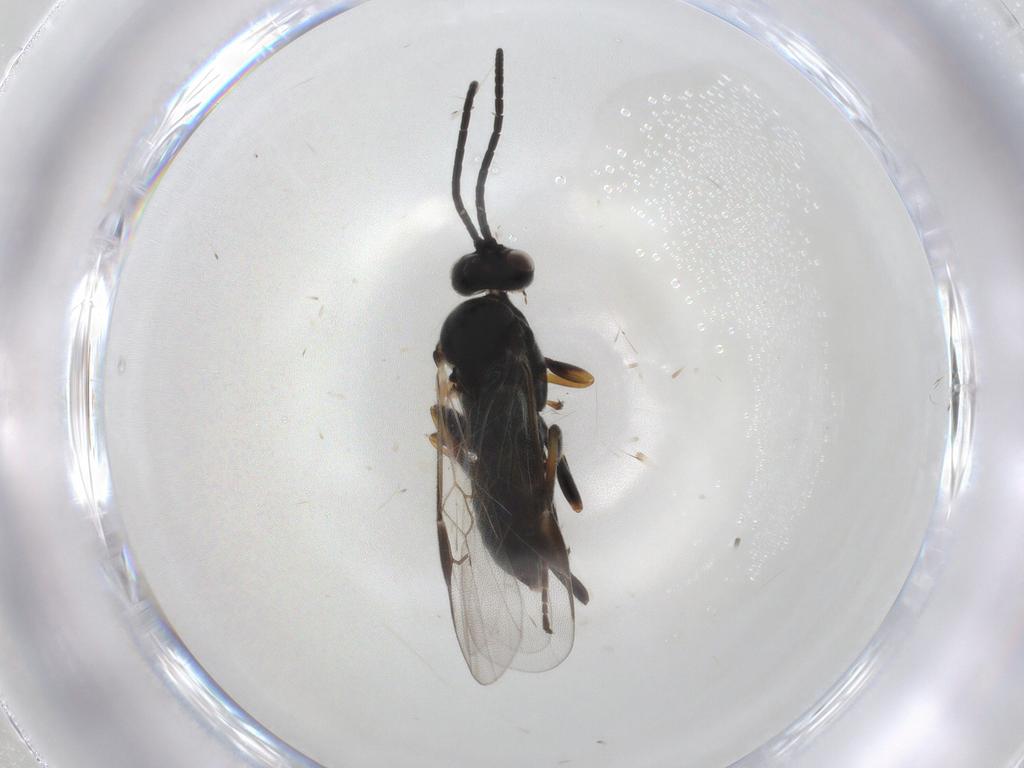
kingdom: Animalia
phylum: Arthropoda
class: Insecta
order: Hymenoptera
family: Braconidae
